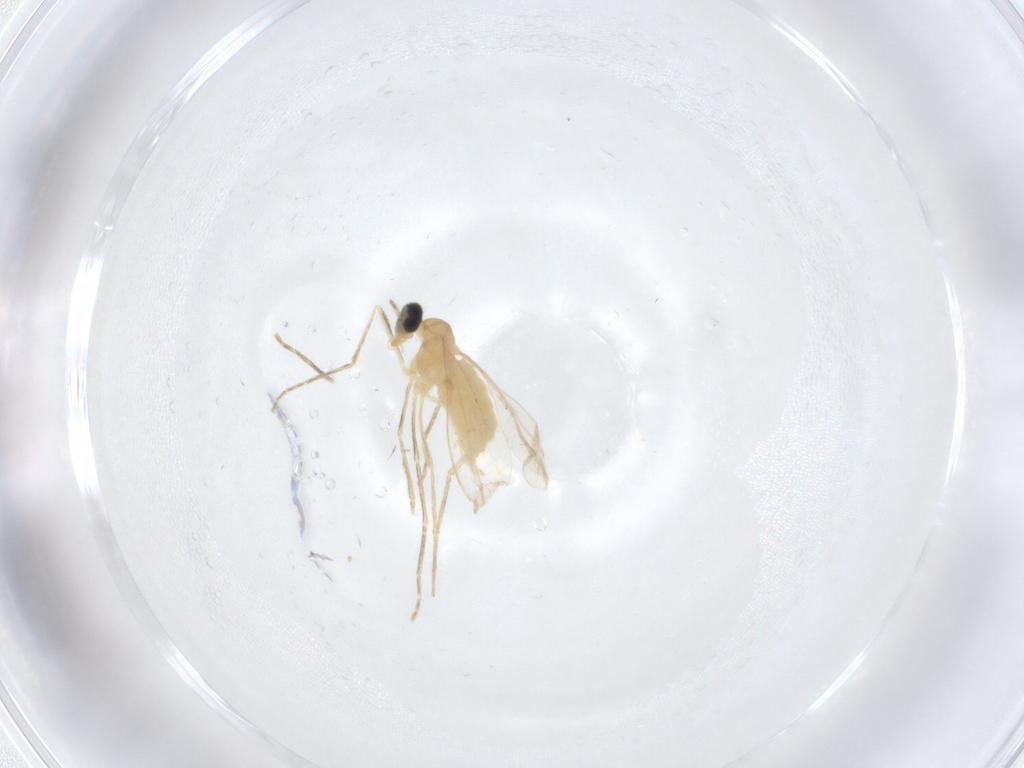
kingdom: Animalia
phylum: Arthropoda
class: Insecta
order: Diptera
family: Cecidomyiidae
